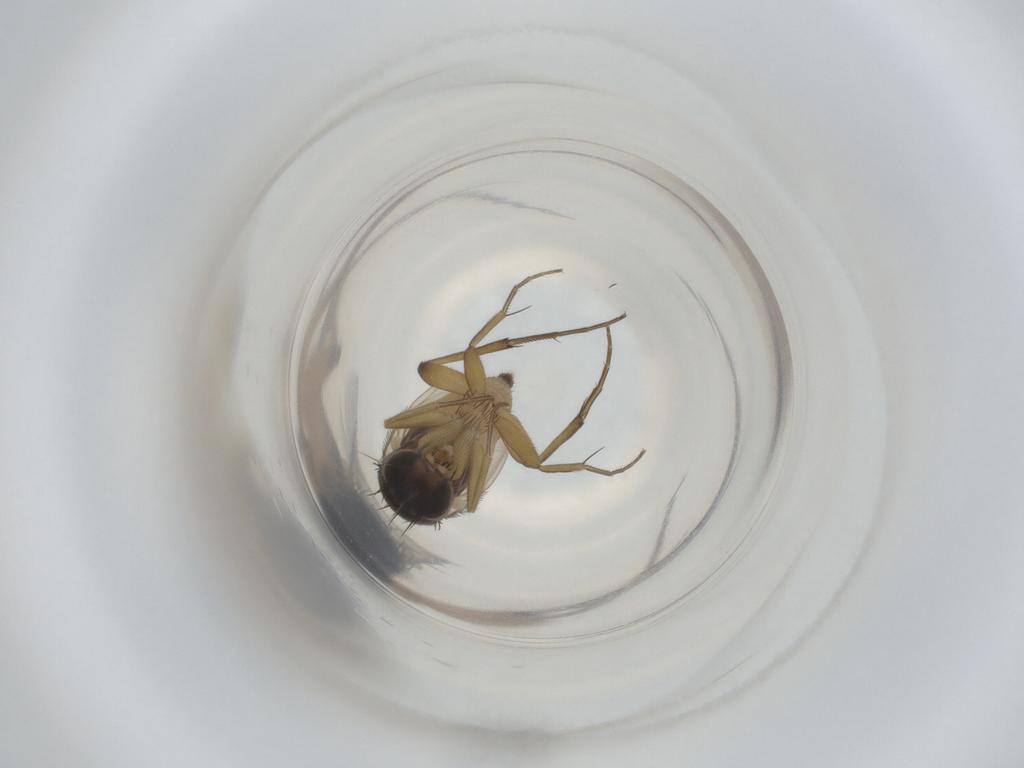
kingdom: Animalia
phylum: Arthropoda
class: Insecta
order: Diptera
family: Phoridae
